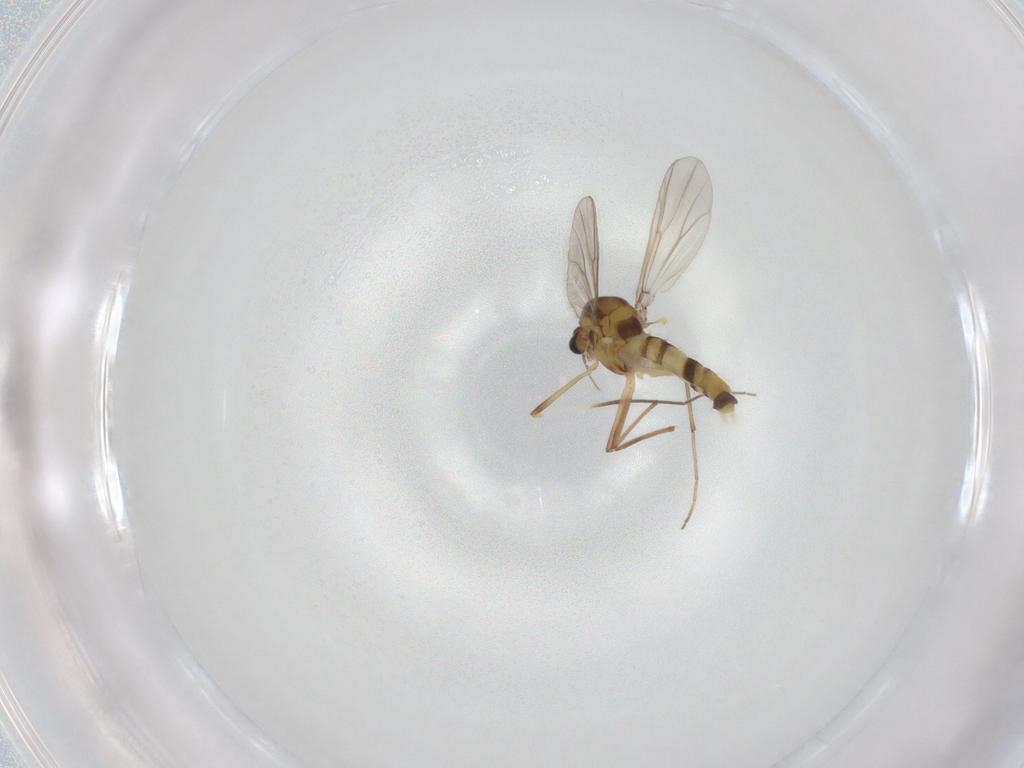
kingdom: Animalia
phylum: Arthropoda
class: Insecta
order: Diptera
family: Chironomidae
